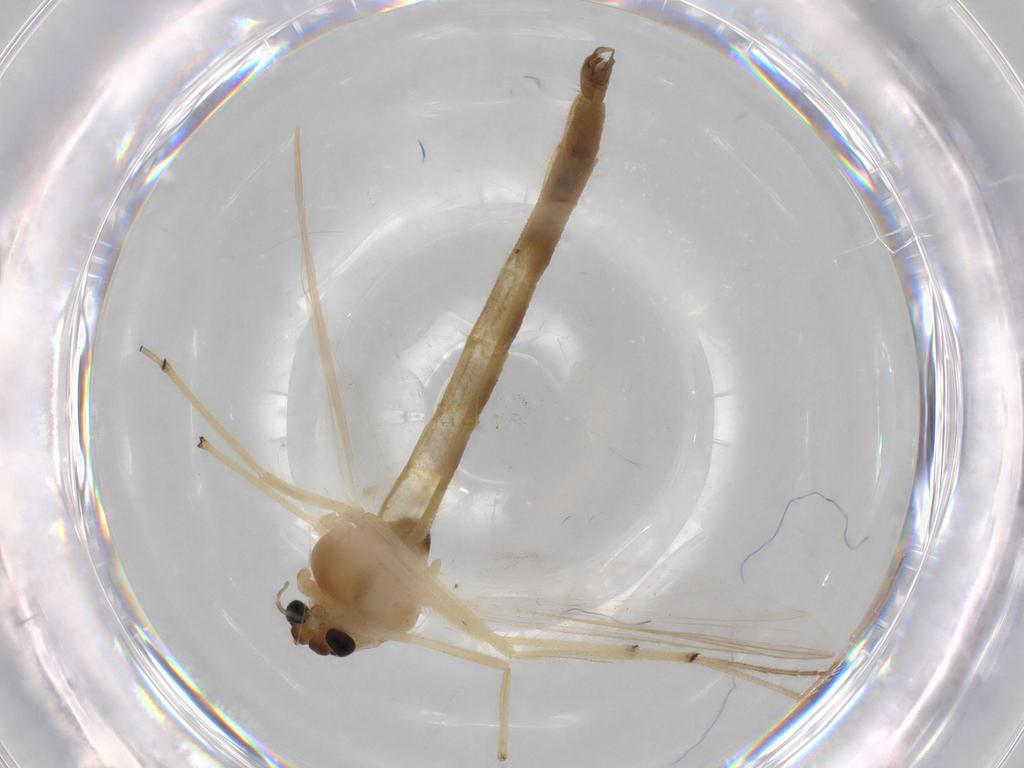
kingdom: Animalia
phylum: Arthropoda
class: Insecta
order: Diptera
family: Chironomidae
